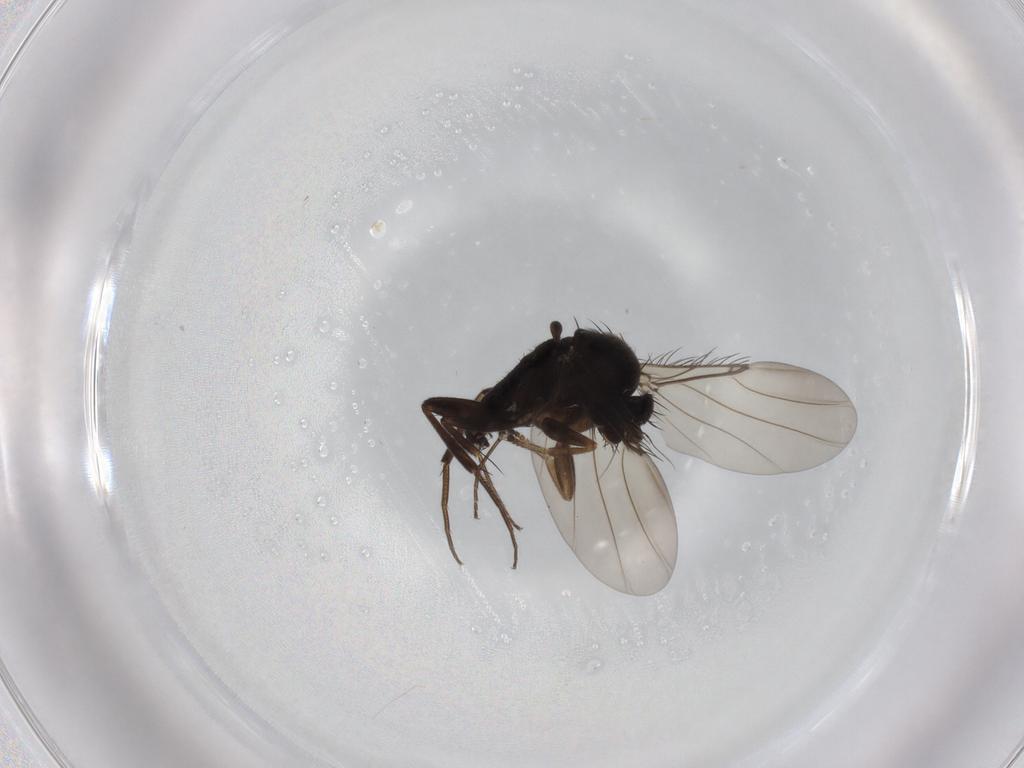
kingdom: Animalia
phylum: Arthropoda
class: Insecta
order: Diptera
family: Phoridae
